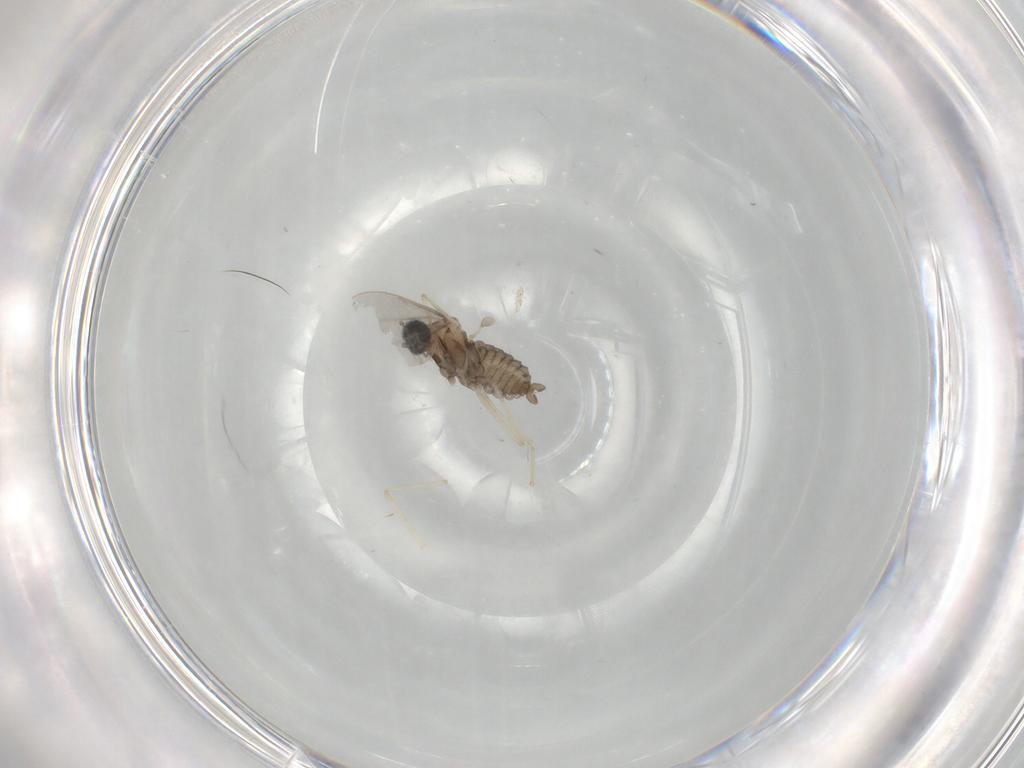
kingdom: Animalia
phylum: Arthropoda
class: Insecta
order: Diptera
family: Cecidomyiidae
